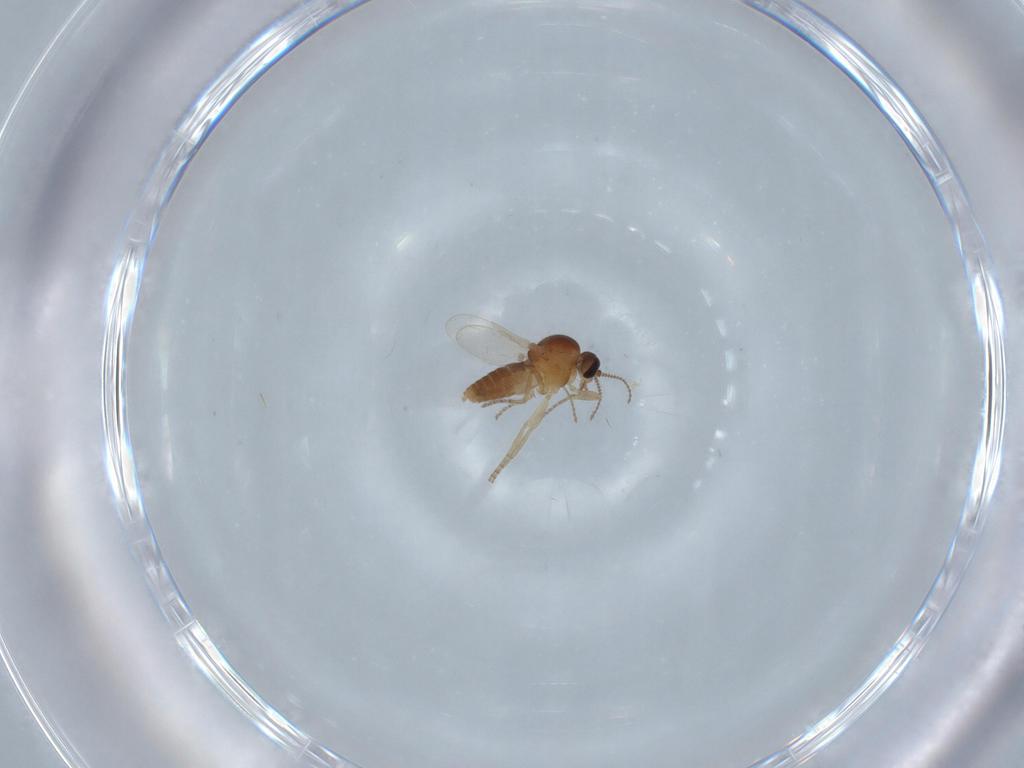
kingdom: Animalia
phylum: Arthropoda
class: Insecta
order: Diptera
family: Ceratopogonidae
